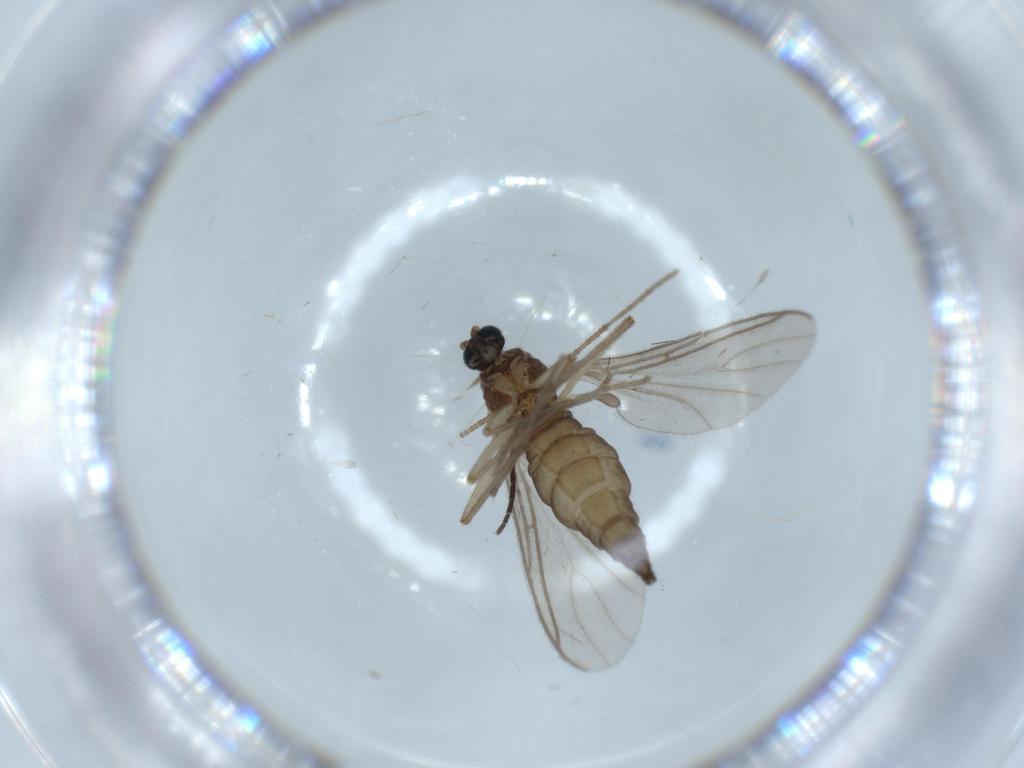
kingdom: Animalia
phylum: Arthropoda
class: Insecta
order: Diptera
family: Sciaridae
